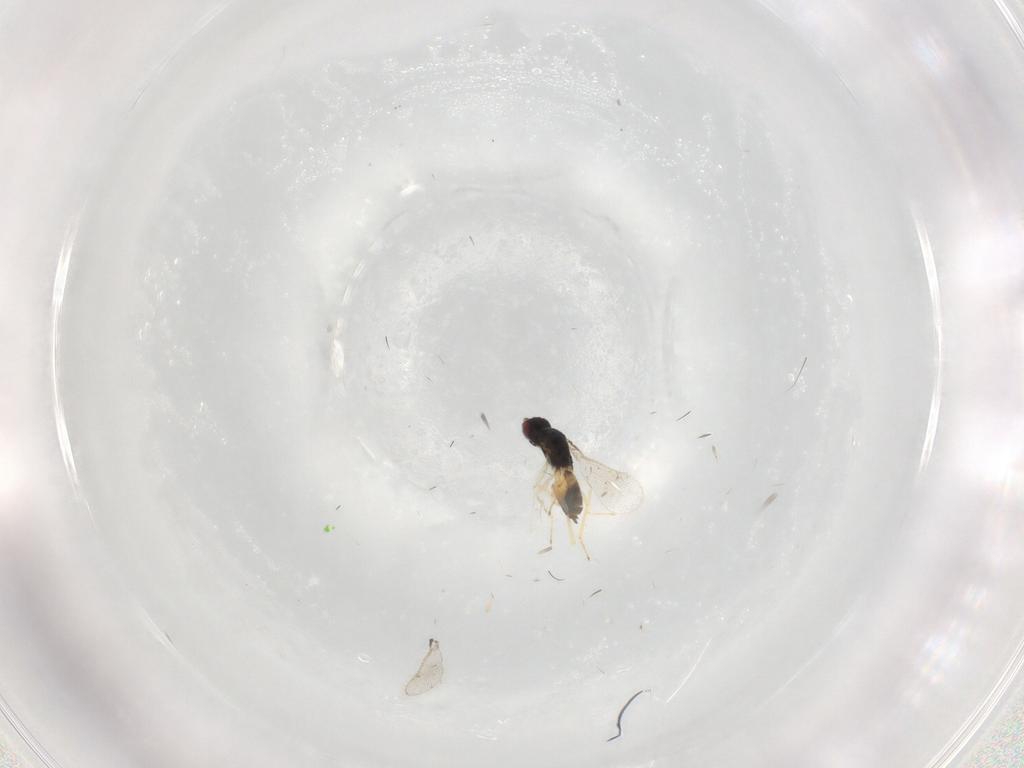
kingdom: Animalia
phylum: Arthropoda
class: Insecta
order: Hymenoptera
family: Eulophidae
